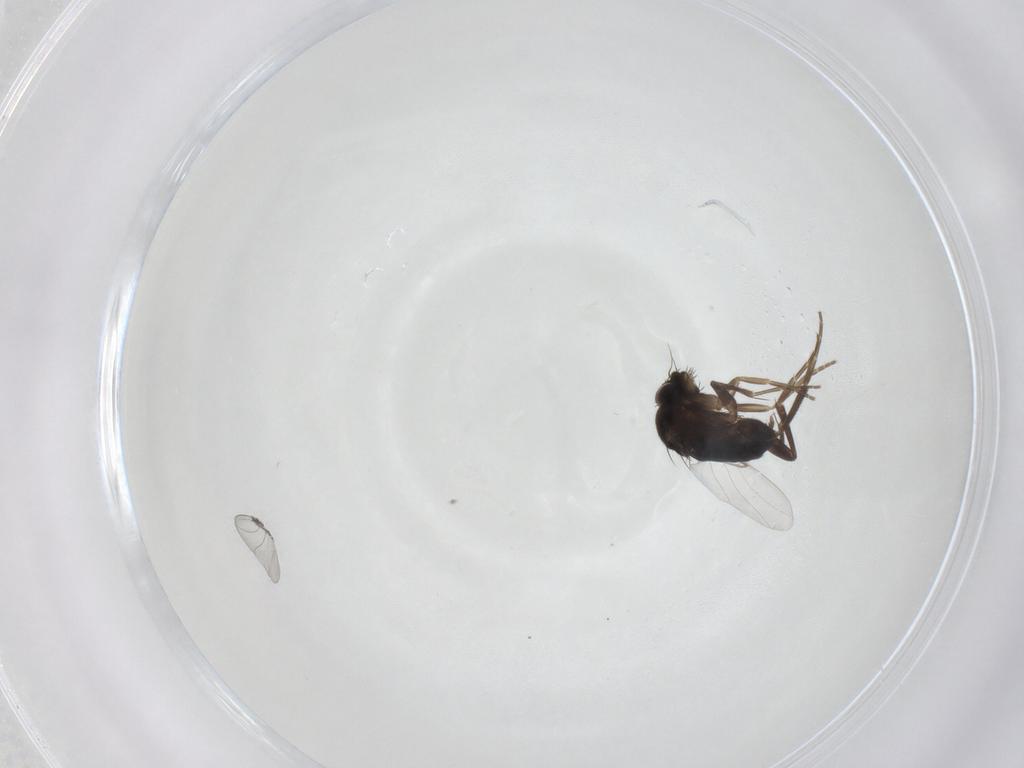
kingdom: Animalia
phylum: Arthropoda
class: Insecta
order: Diptera
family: Phoridae
